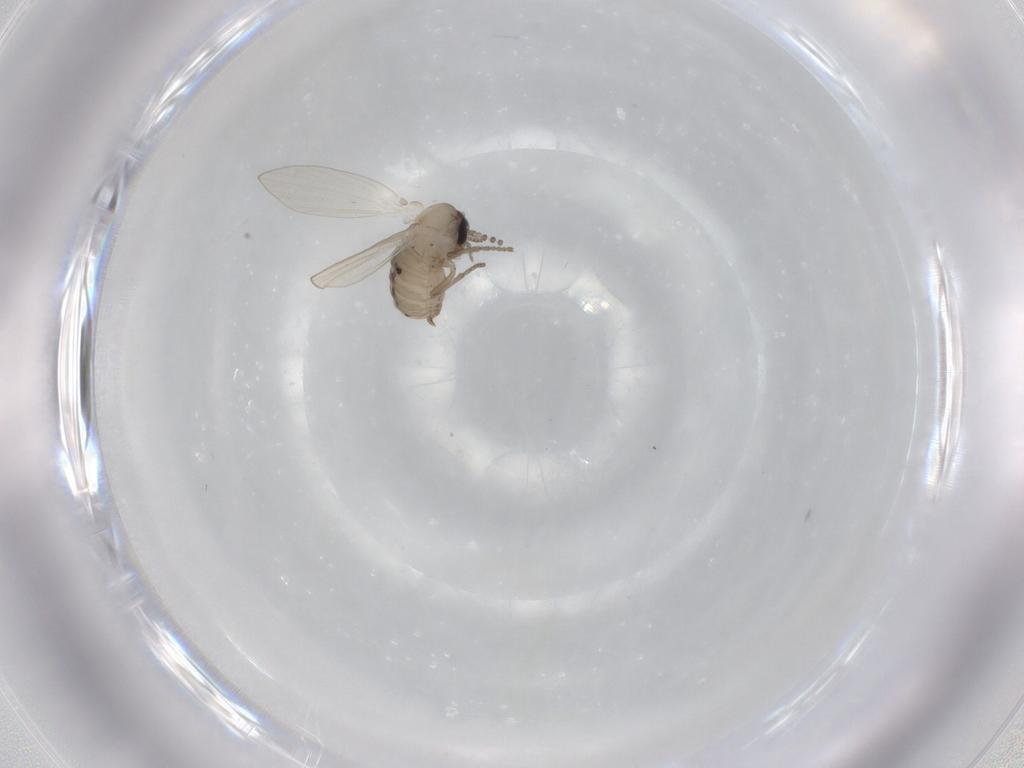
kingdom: Animalia
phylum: Arthropoda
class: Insecta
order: Diptera
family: Psychodidae
